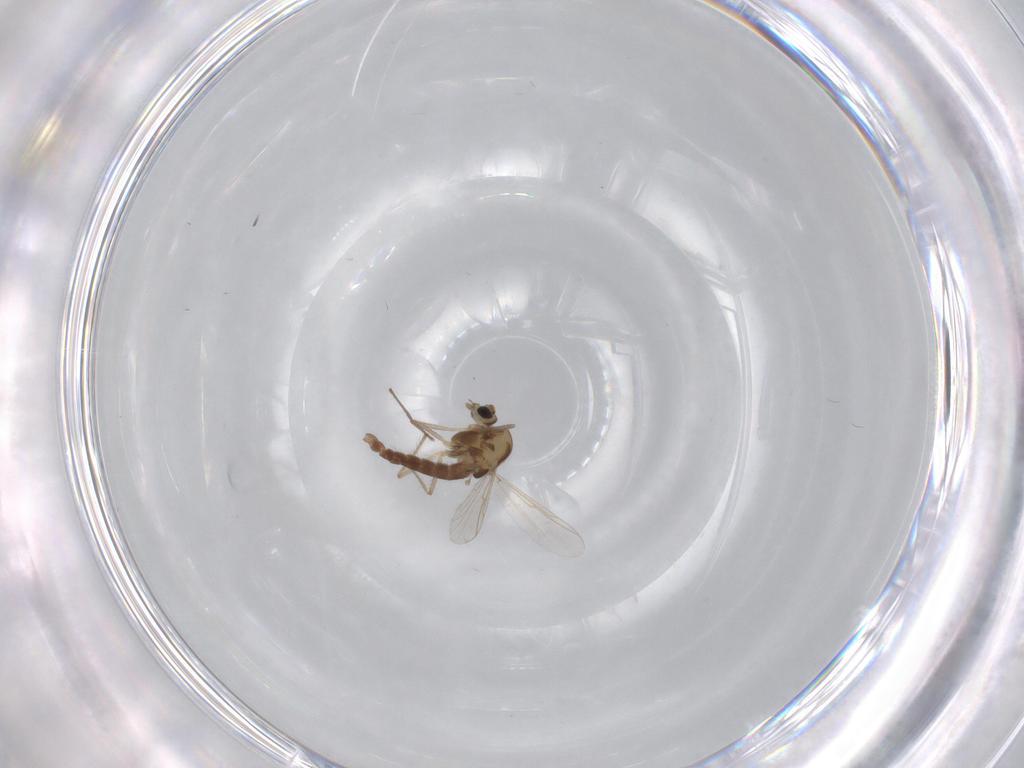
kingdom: Animalia
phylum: Arthropoda
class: Insecta
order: Diptera
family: Chironomidae
